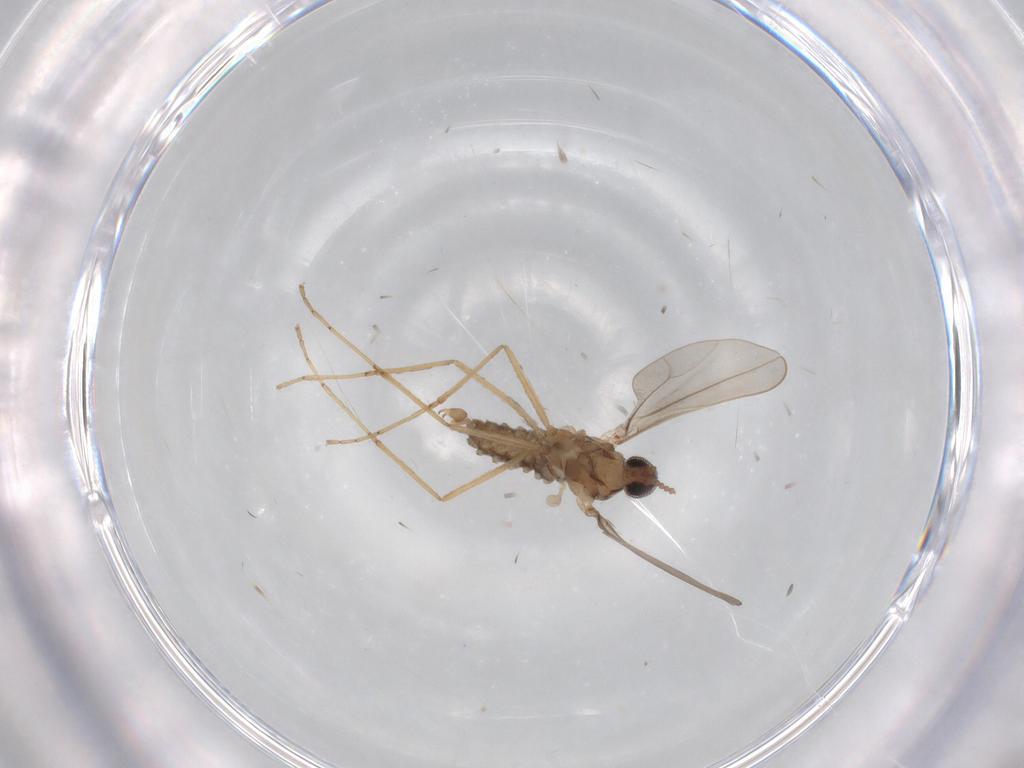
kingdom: Animalia
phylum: Arthropoda
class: Insecta
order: Diptera
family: Cecidomyiidae
